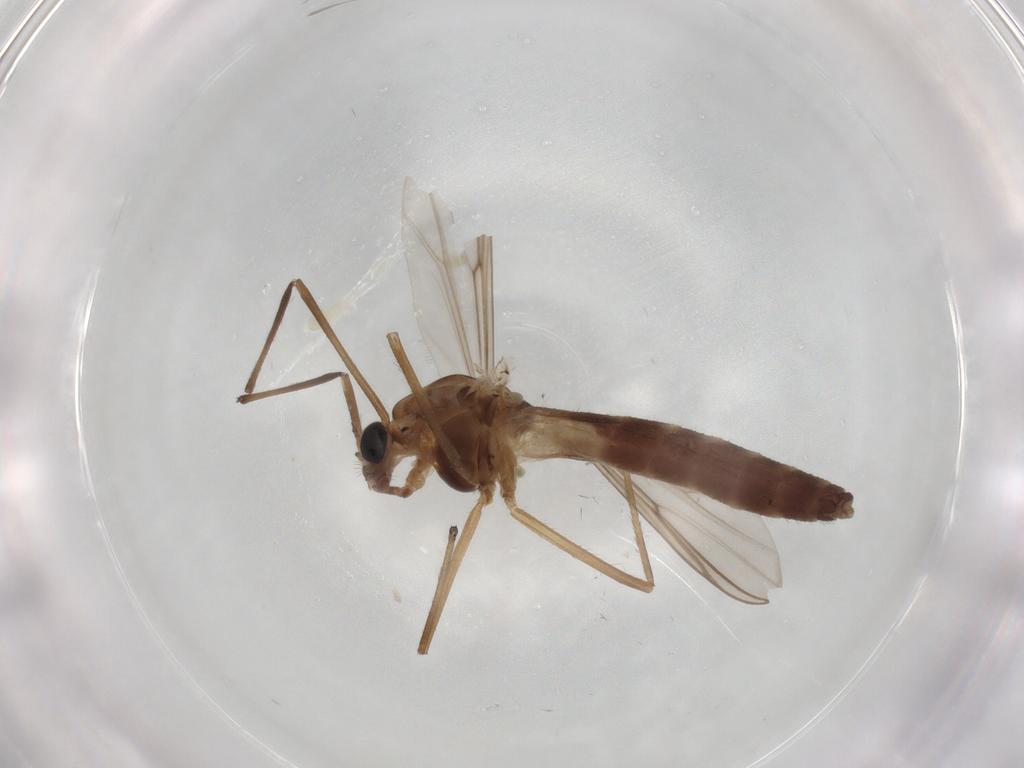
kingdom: Animalia
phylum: Arthropoda
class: Insecta
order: Diptera
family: Chironomidae
